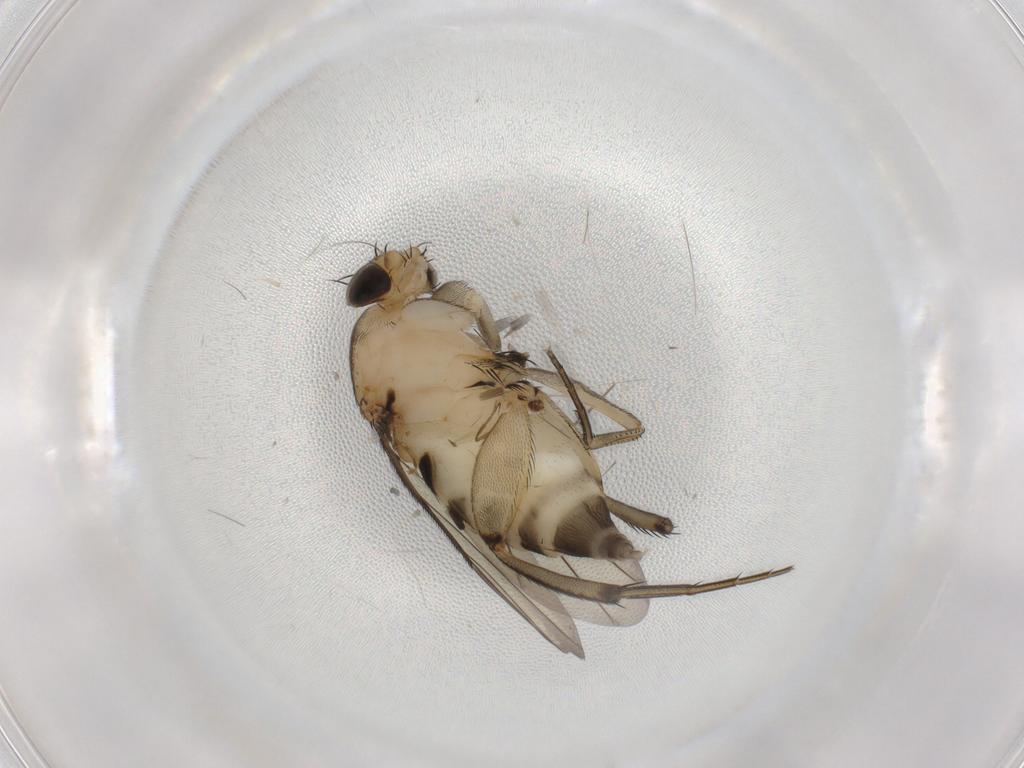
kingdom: Animalia
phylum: Arthropoda
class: Insecta
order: Diptera
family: Phoridae
